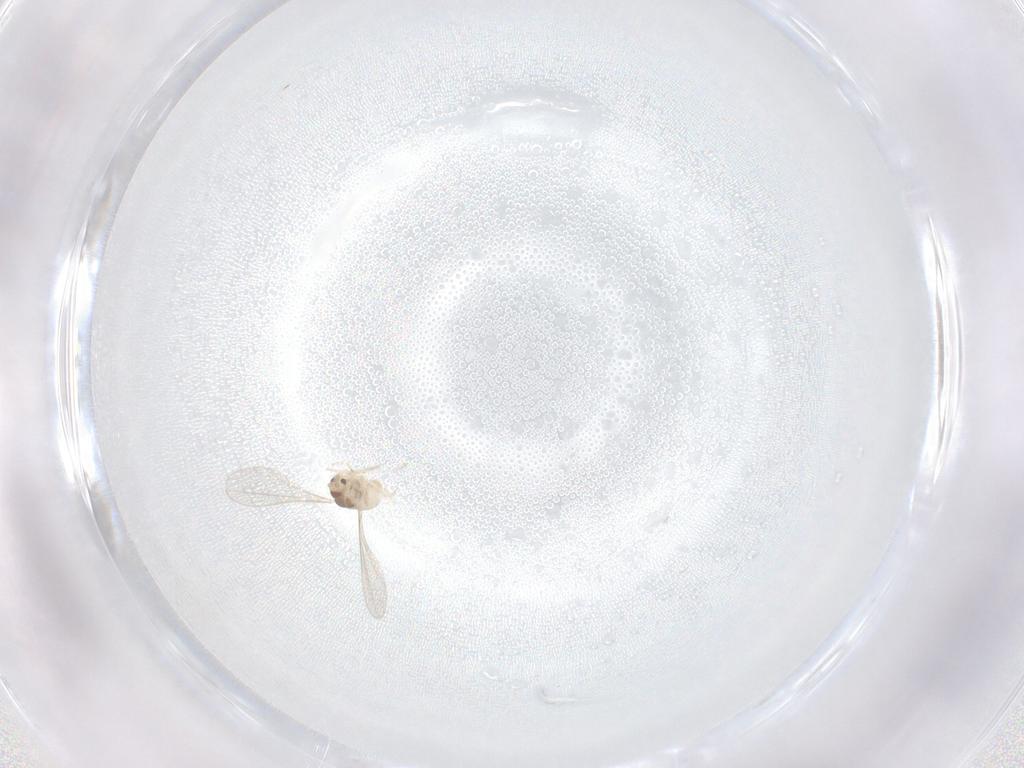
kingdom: Animalia
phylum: Arthropoda
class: Insecta
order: Diptera
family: Cecidomyiidae
